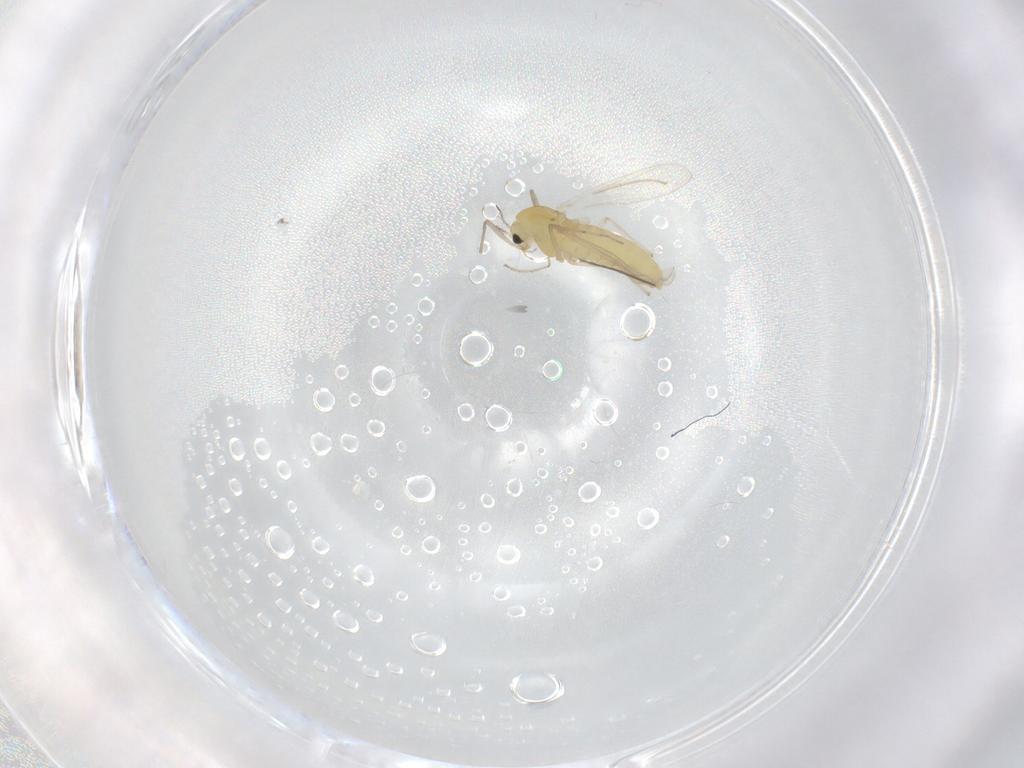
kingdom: Animalia
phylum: Arthropoda
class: Insecta
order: Diptera
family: Chironomidae
